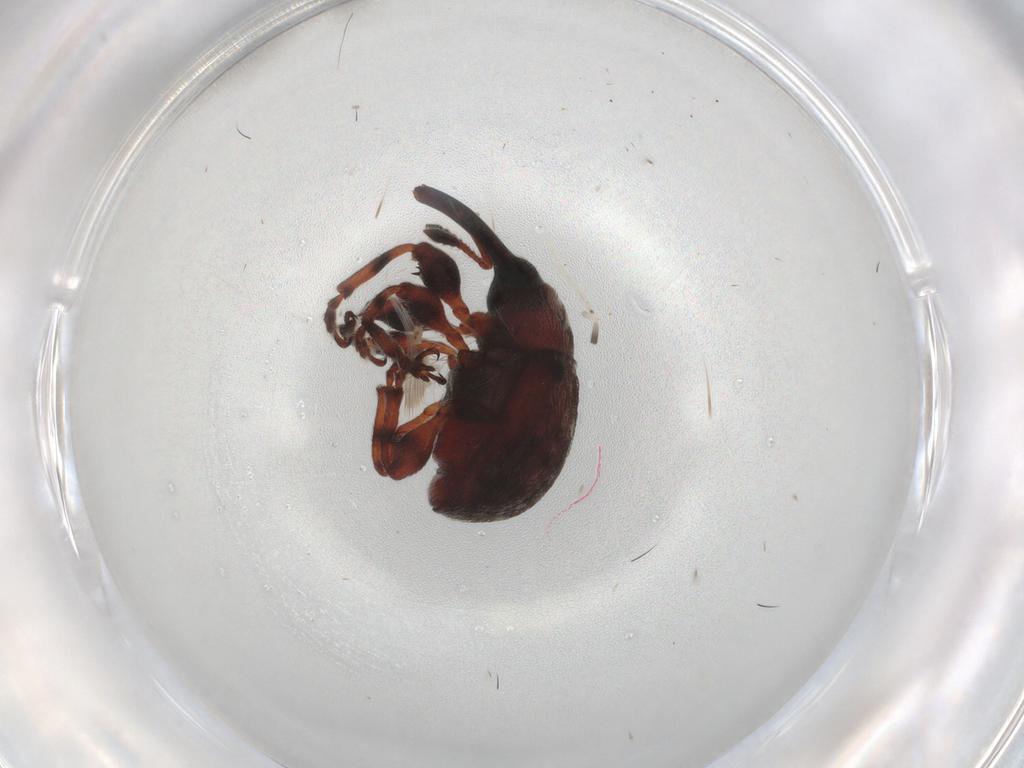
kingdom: Animalia
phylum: Arthropoda
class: Insecta
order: Coleoptera
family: Brentidae
